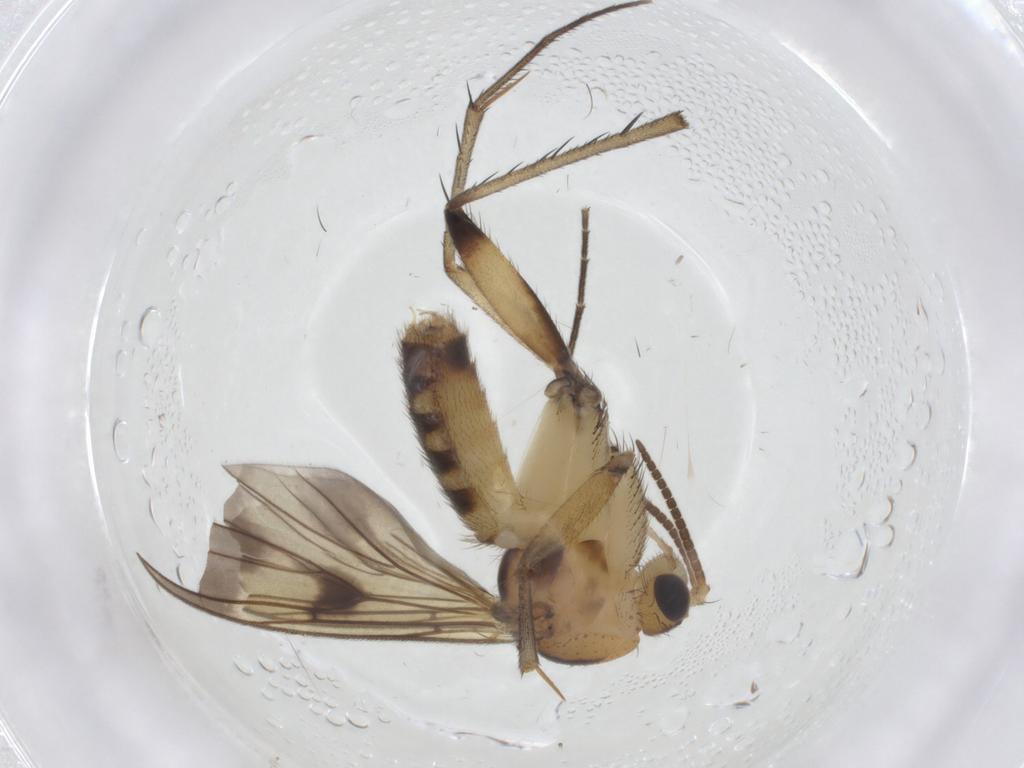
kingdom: Animalia
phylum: Arthropoda
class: Insecta
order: Diptera
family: Mycetophilidae
